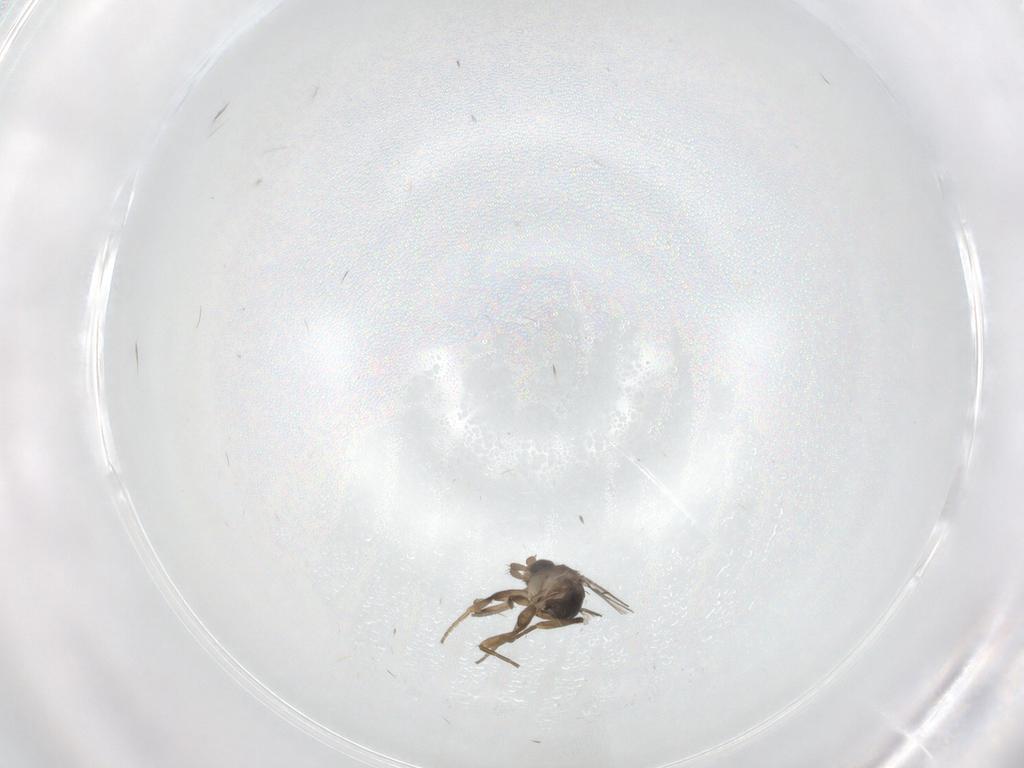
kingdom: Animalia
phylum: Arthropoda
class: Insecta
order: Diptera
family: Phoridae
